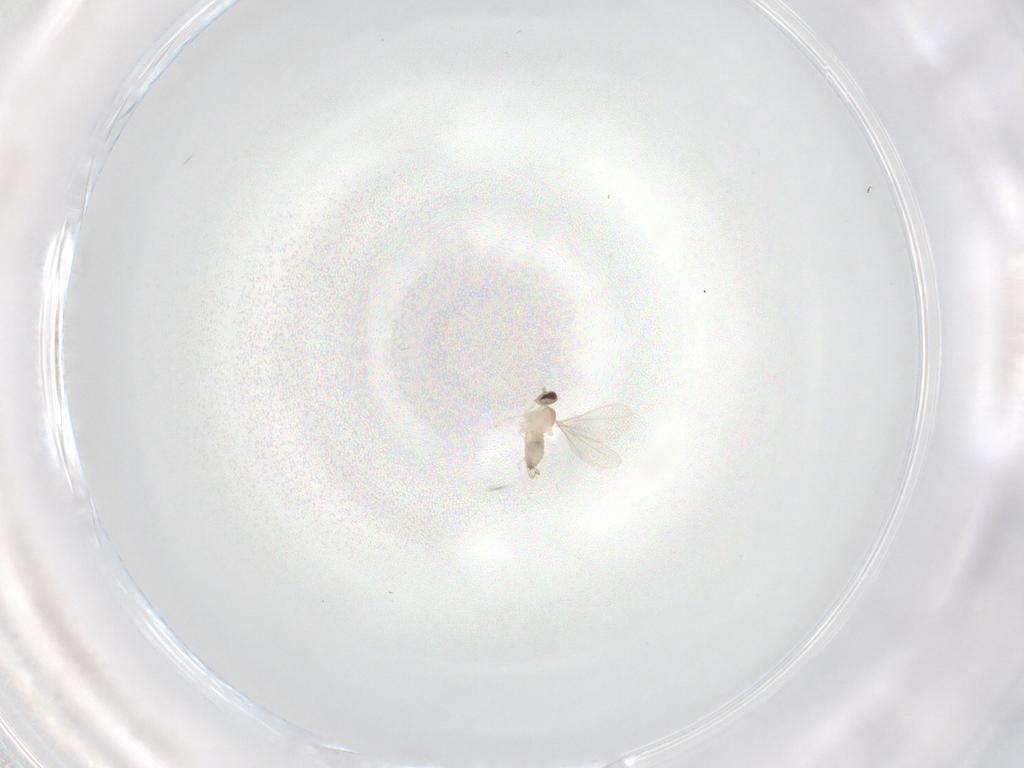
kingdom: Animalia
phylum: Arthropoda
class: Insecta
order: Diptera
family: Cecidomyiidae
